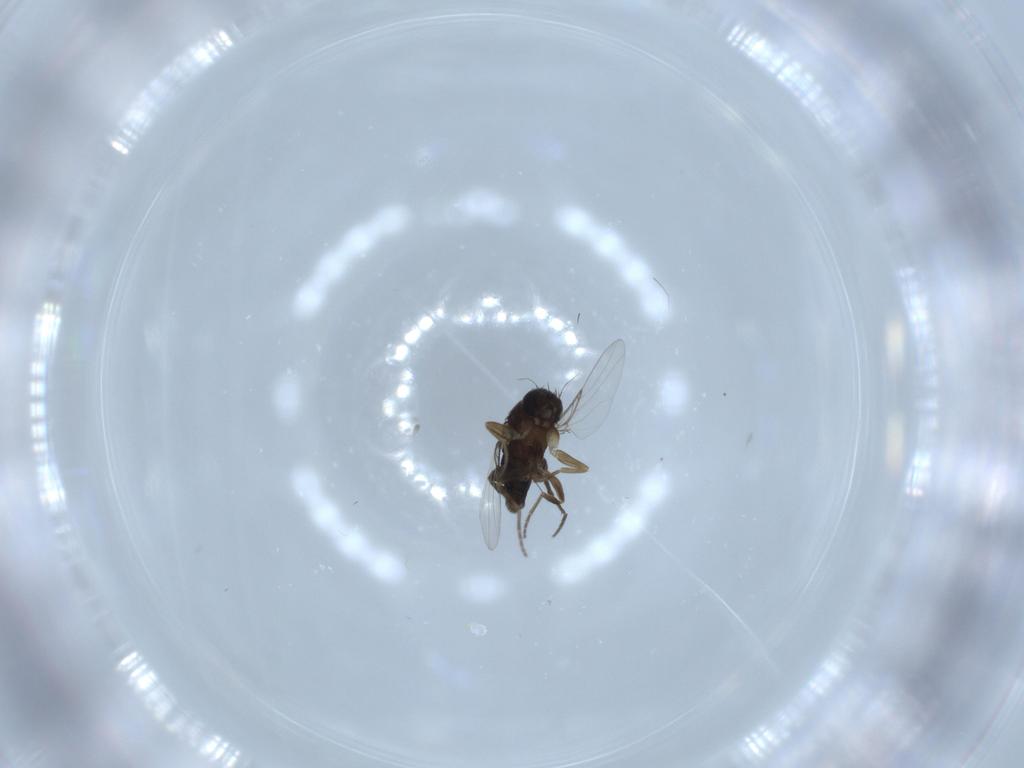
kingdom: Animalia
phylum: Arthropoda
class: Insecta
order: Diptera
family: Phoridae
